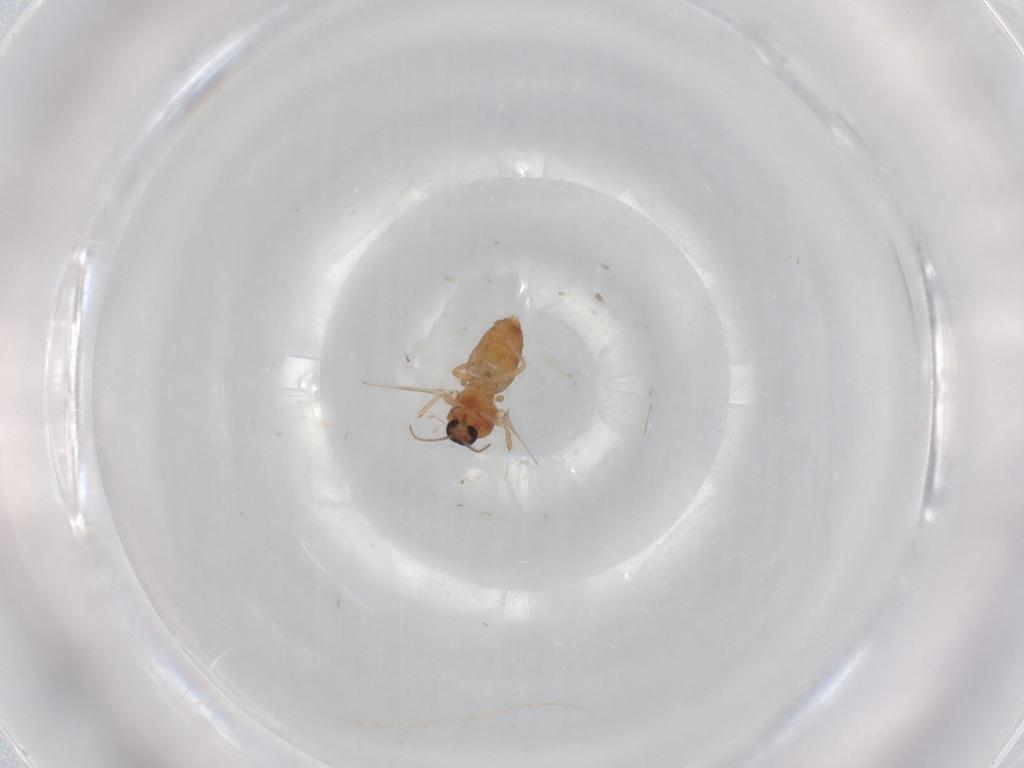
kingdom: Animalia
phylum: Arthropoda
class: Insecta
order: Diptera
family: Ceratopogonidae
